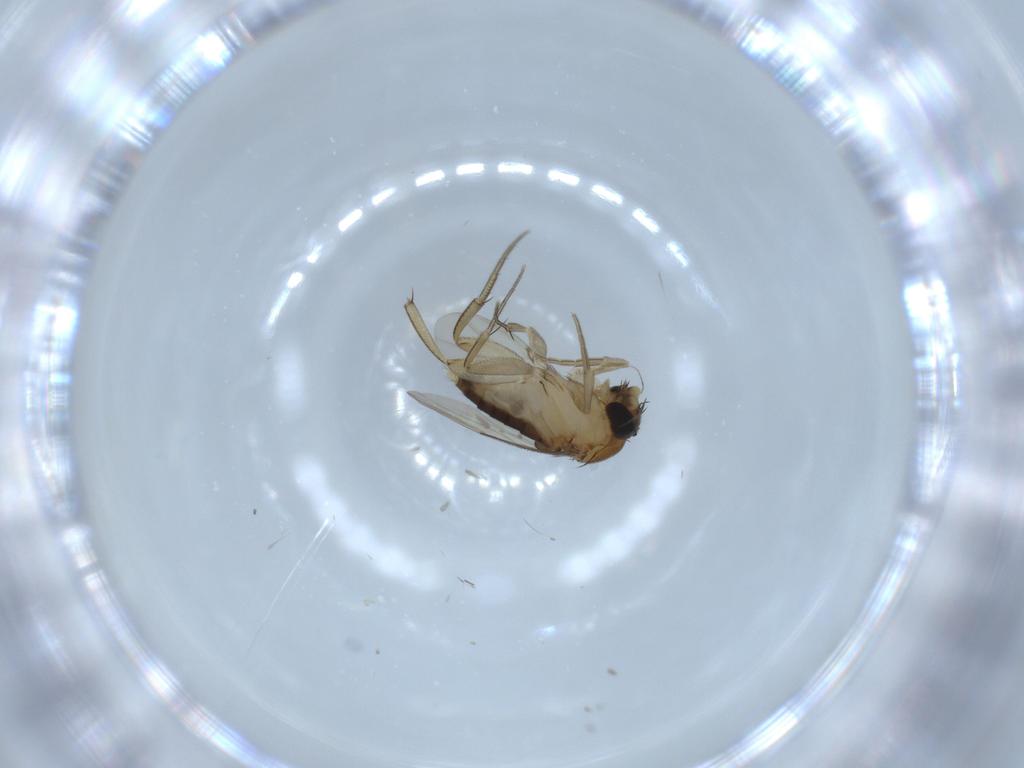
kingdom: Animalia
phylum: Arthropoda
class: Insecta
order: Diptera
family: Phoridae
